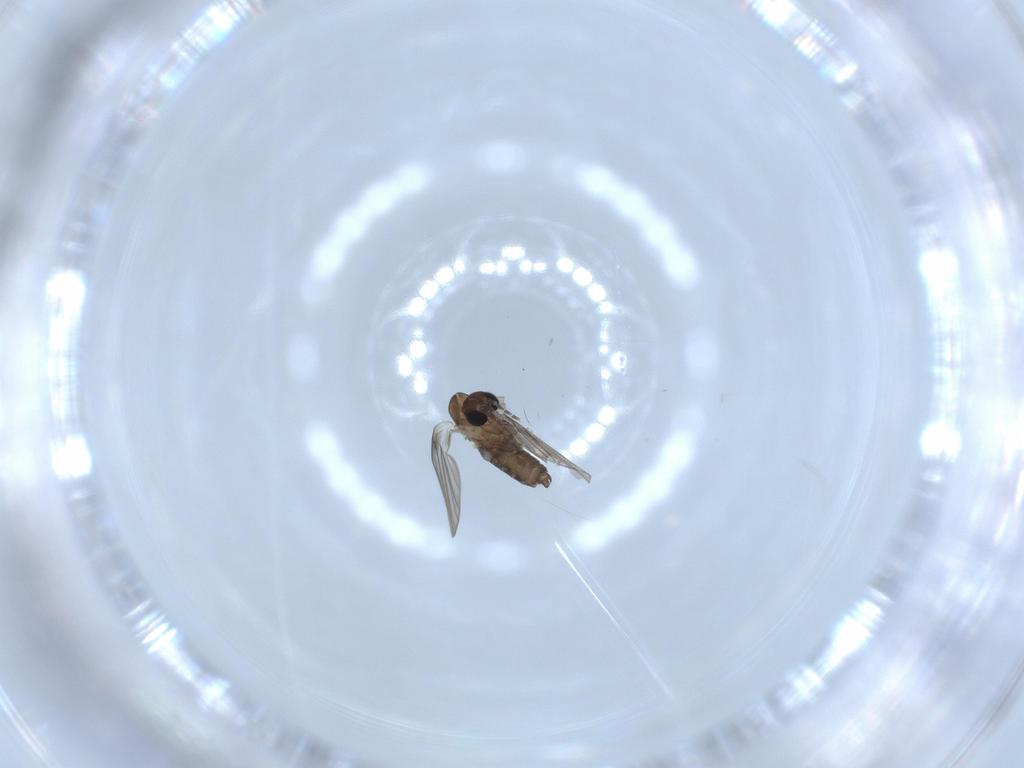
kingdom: Animalia
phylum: Arthropoda
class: Insecta
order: Diptera
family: Psychodidae
